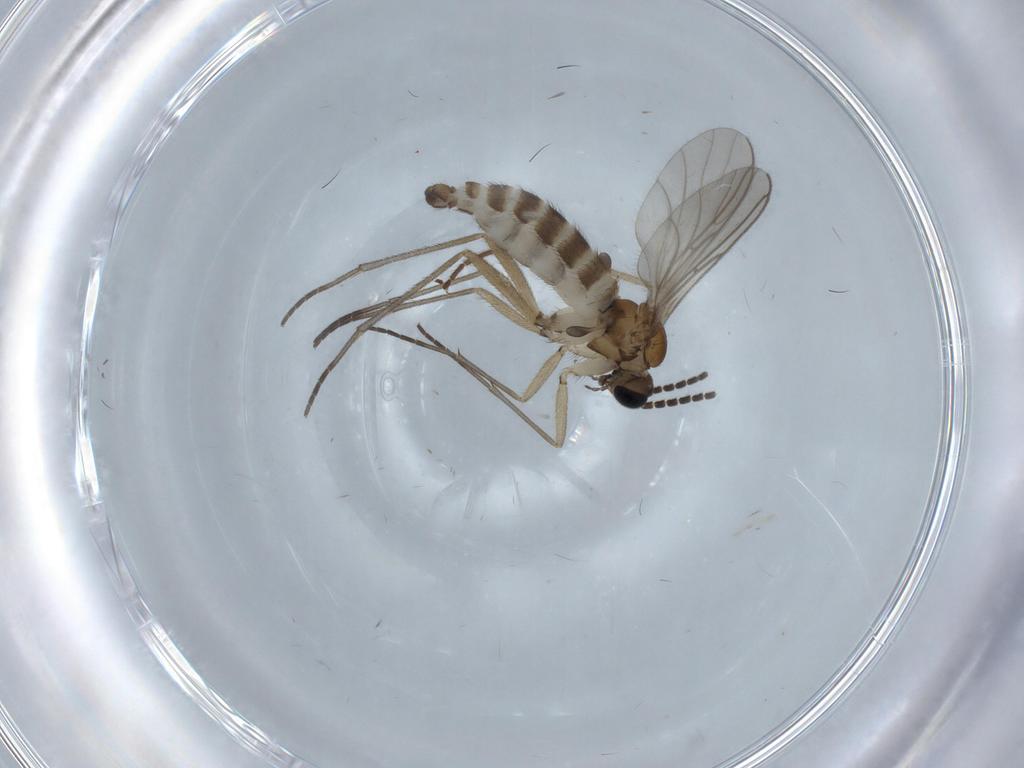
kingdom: Animalia
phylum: Arthropoda
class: Insecta
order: Diptera
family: Sciaridae
